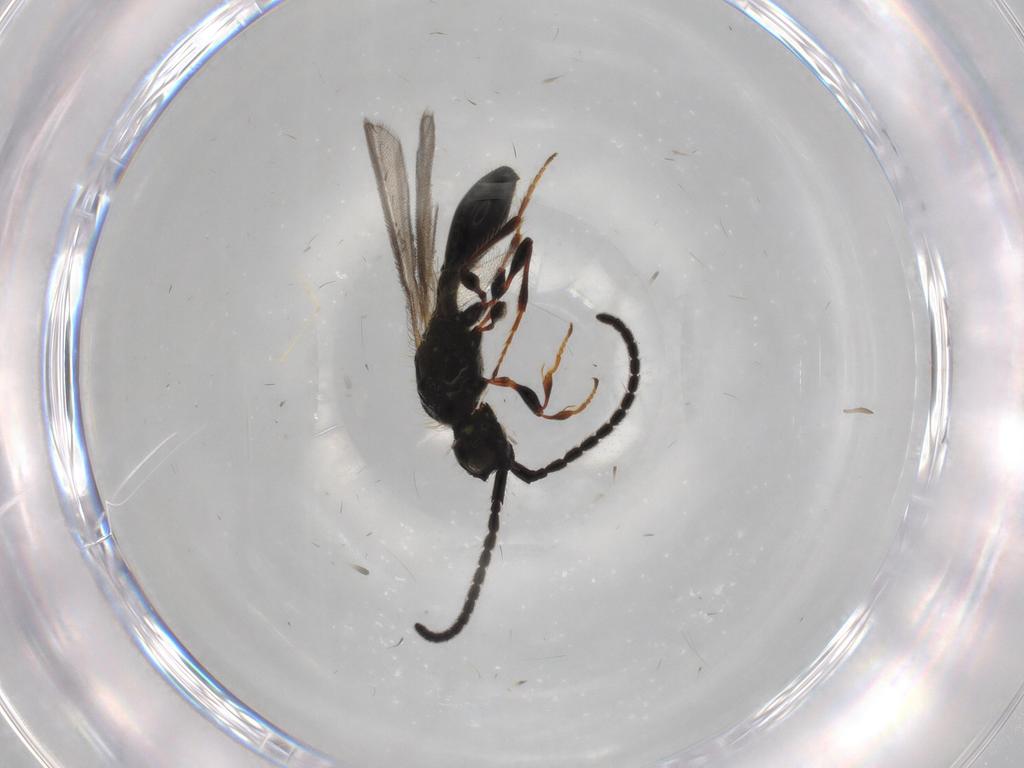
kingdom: Animalia
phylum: Arthropoda
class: Insecta
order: Hymenoptera
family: Diapriidae
